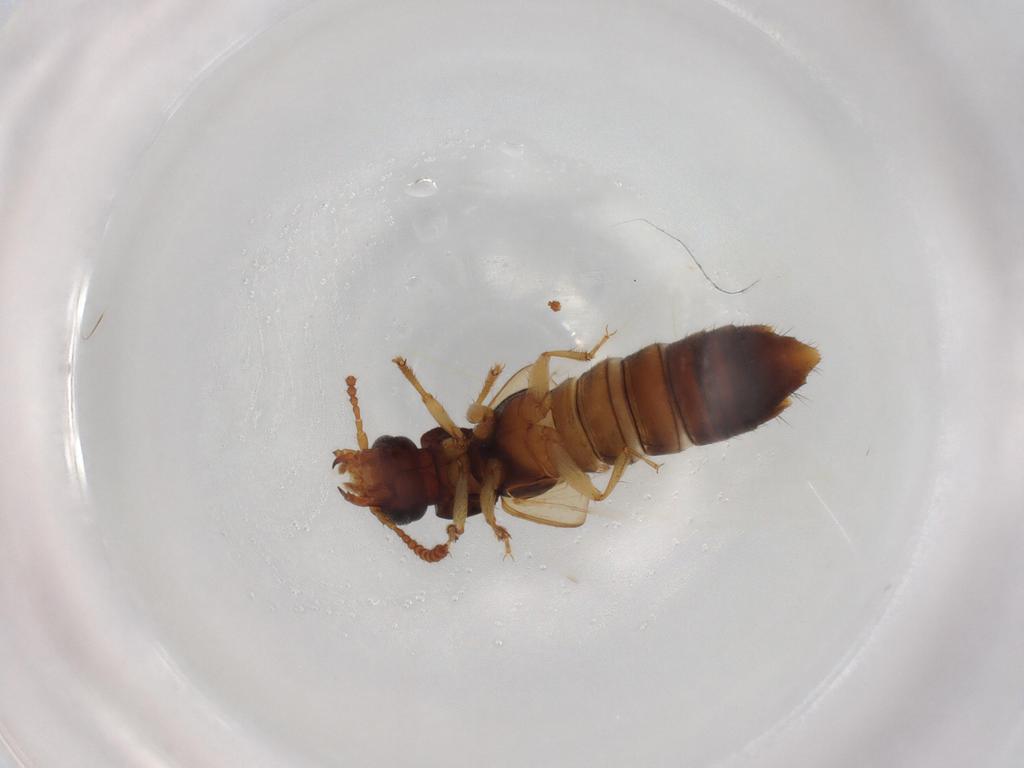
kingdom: Animalia
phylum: Arthropoda
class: Insecta
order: Coleoptera
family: Staphylinidae
